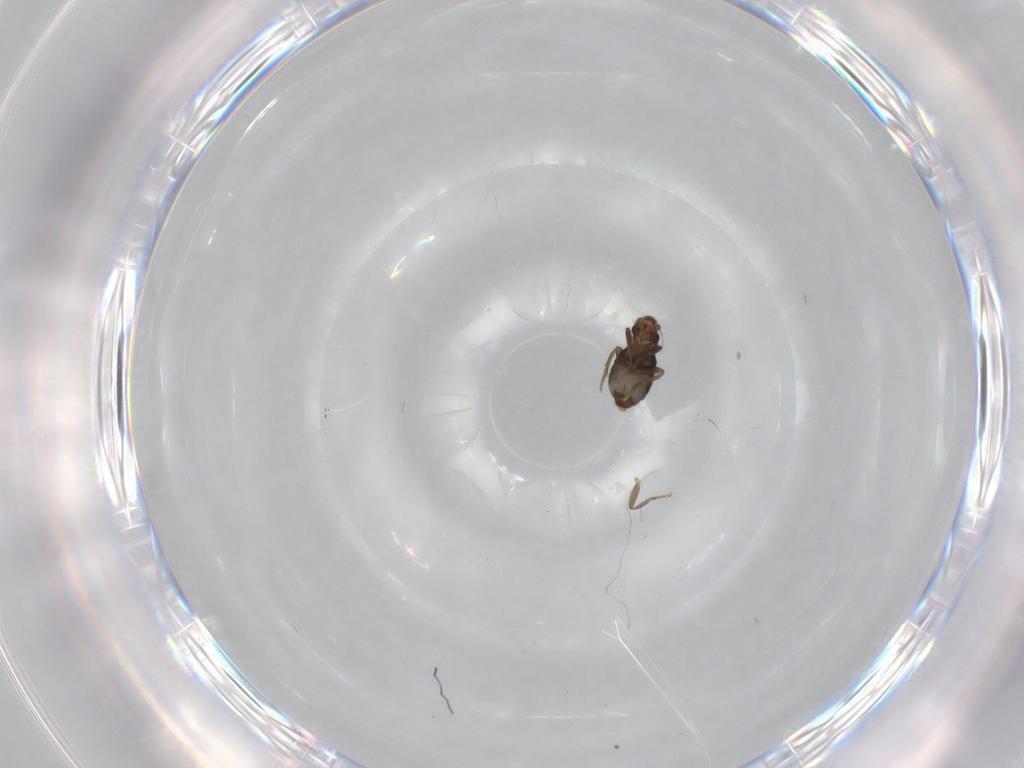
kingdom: Animalia
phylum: Arthropoda
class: Insecta
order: Diptera
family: Phoridae
